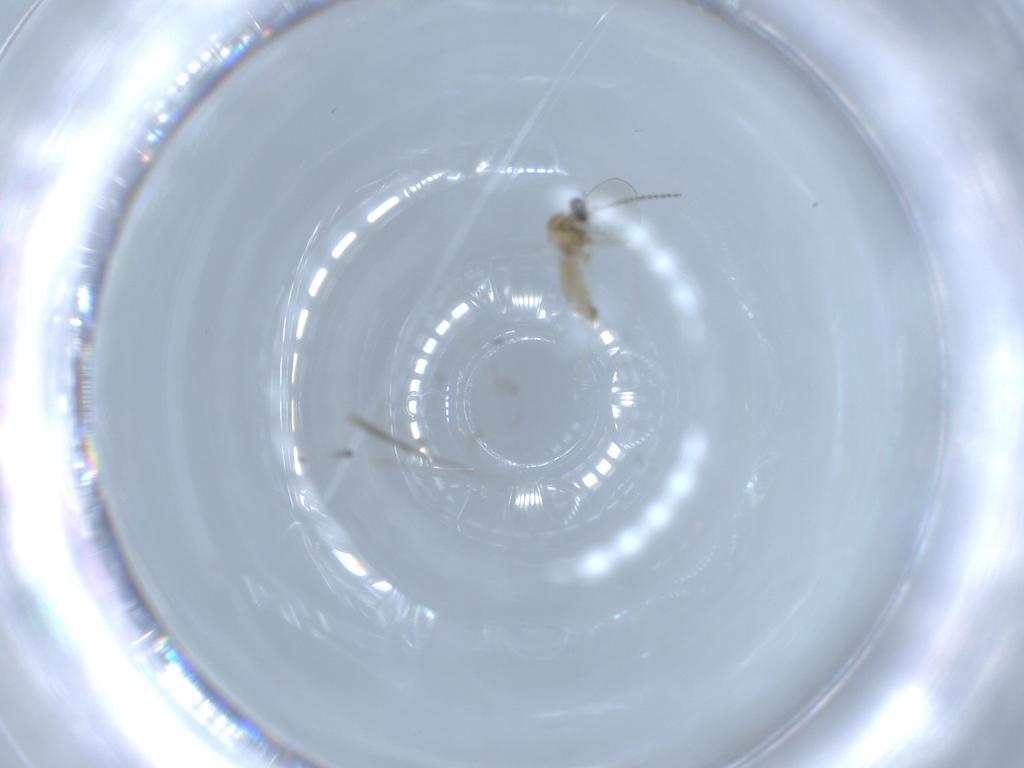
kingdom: Animalia
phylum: Arthropoda
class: Insecta
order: Diptera
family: Cecidomyiidae
